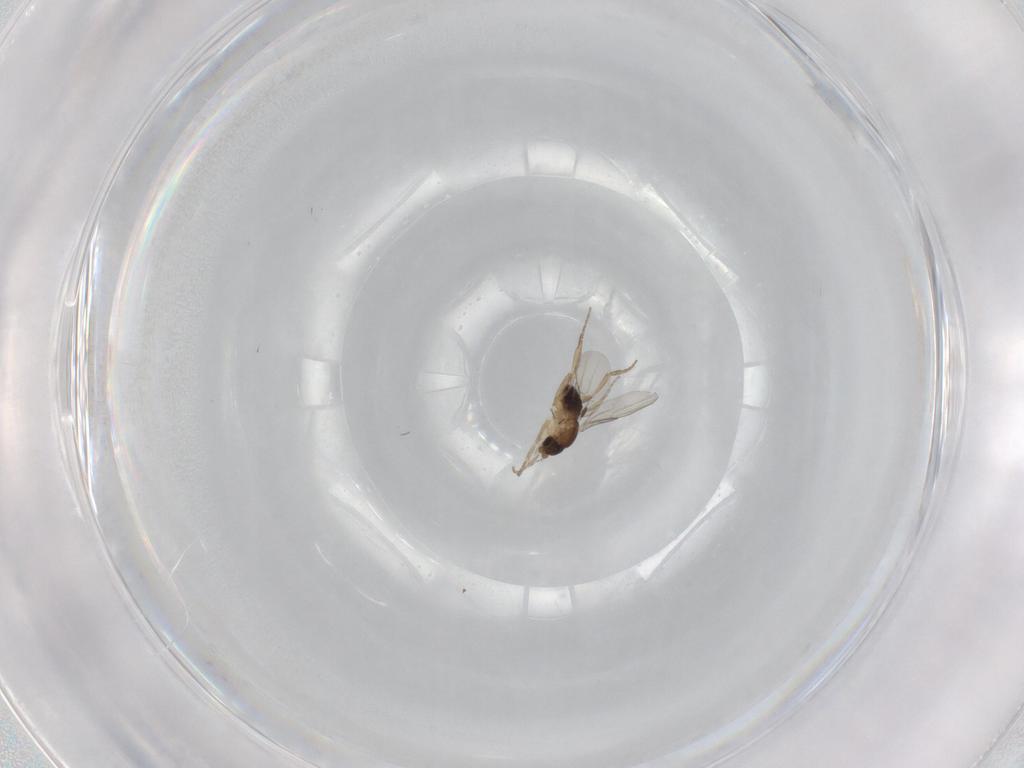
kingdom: Animalia
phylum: Arthropoda
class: Insecta
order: Diptera
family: Phoridae
